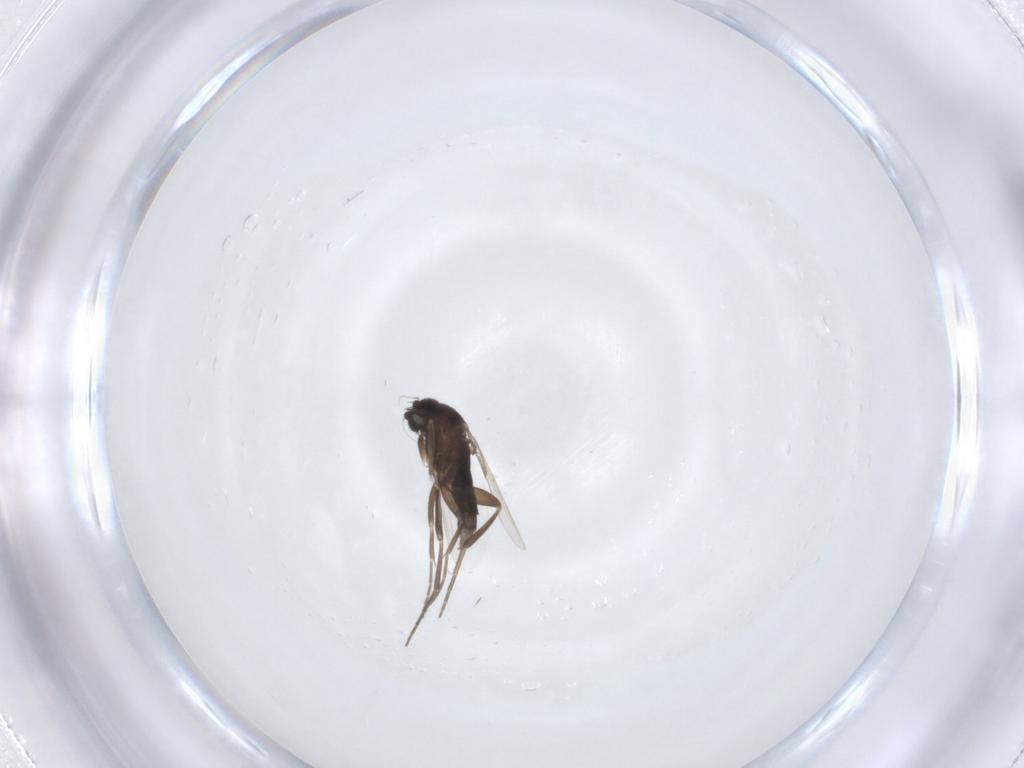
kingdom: Animalia
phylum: Arthropoda
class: Insecta
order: Diptera
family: Phoridae
